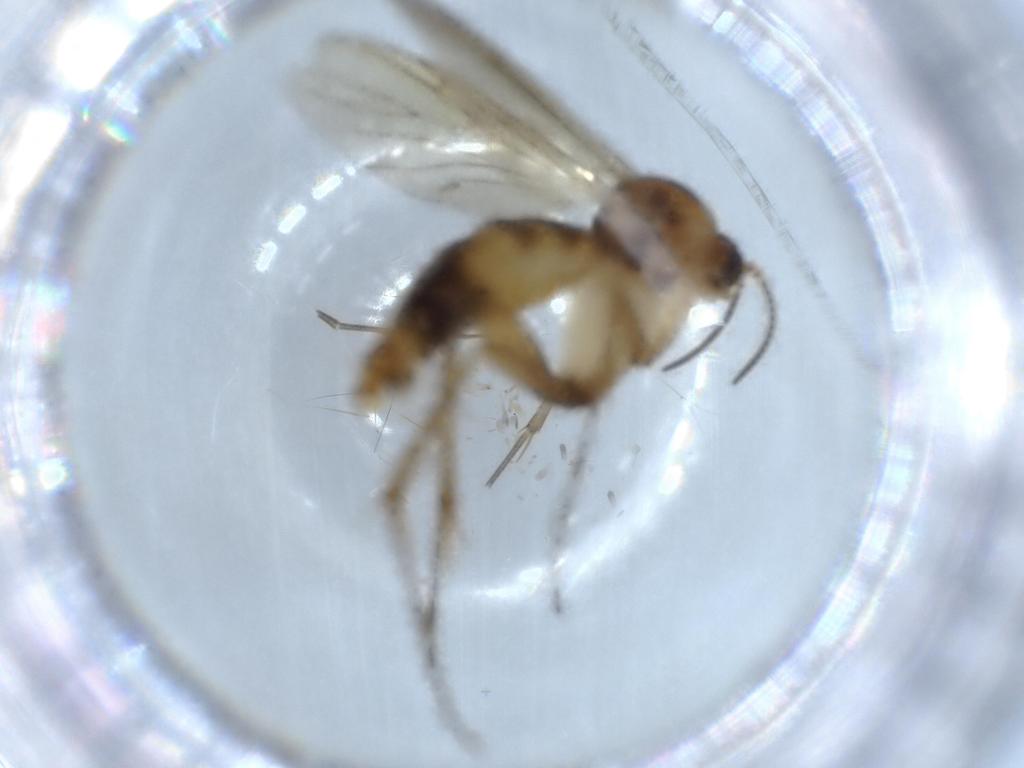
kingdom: Animalia
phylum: Arthropoda
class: Insecta
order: Diptera
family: Mycetophilidae
